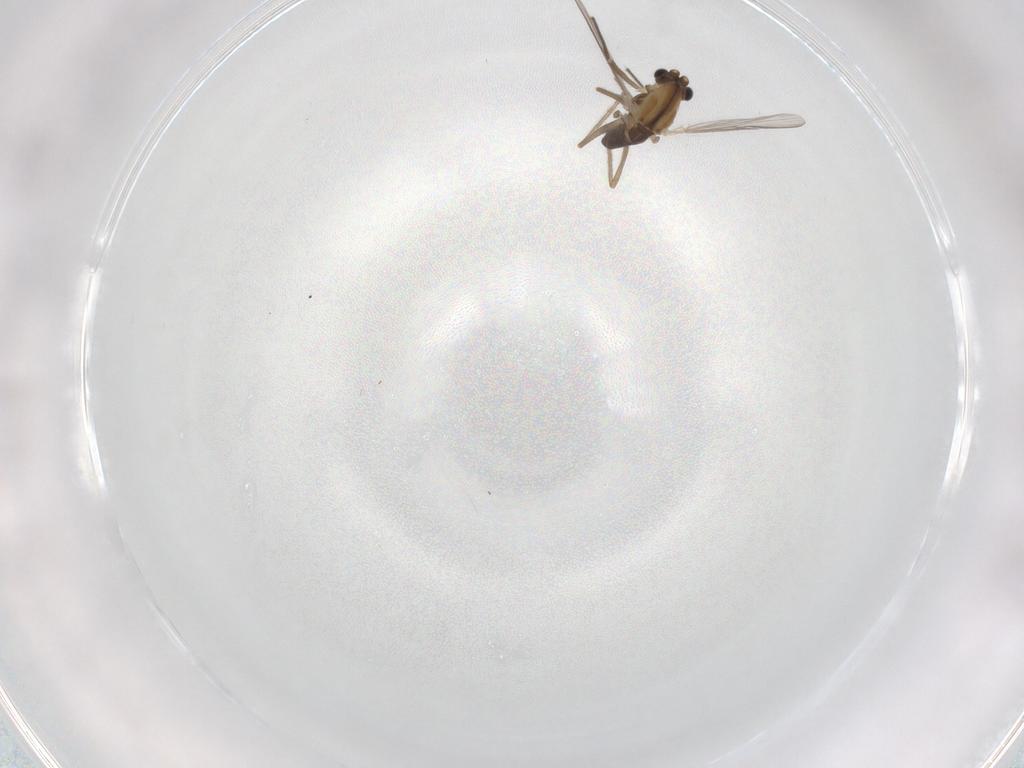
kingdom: Animalia
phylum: Arthropoda
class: Insecta
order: Diptera
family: Chironomidae
